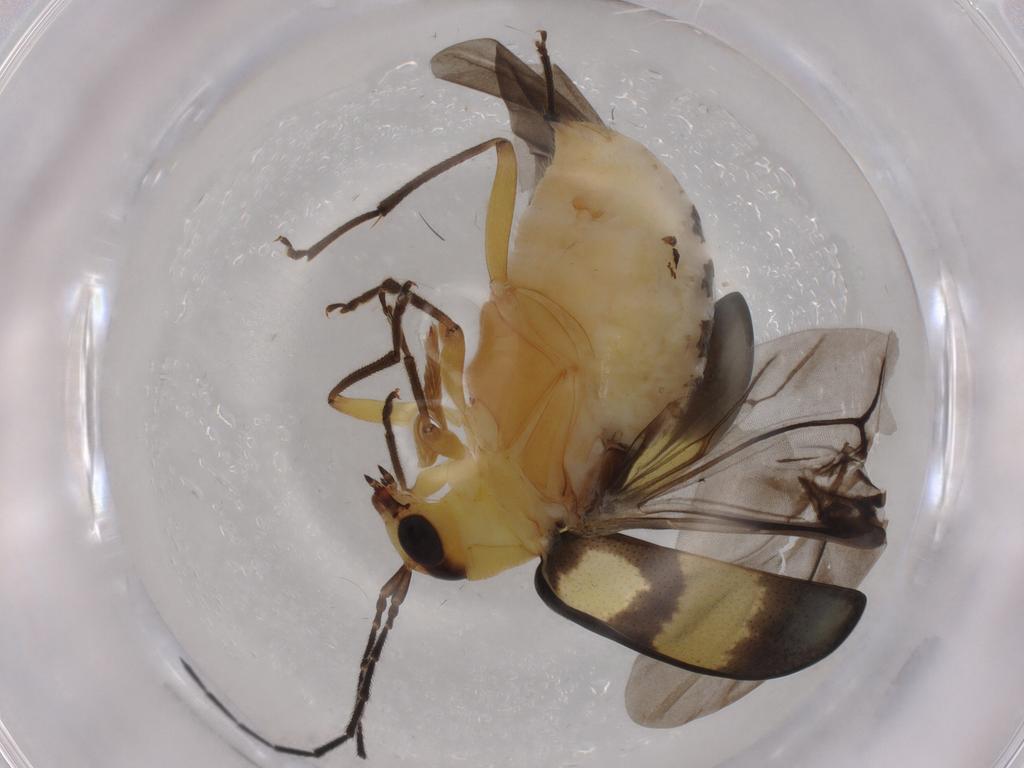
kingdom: Animalia
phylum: Arthropoda
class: Insecta
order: Coleoptera
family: Chrysomelidae
